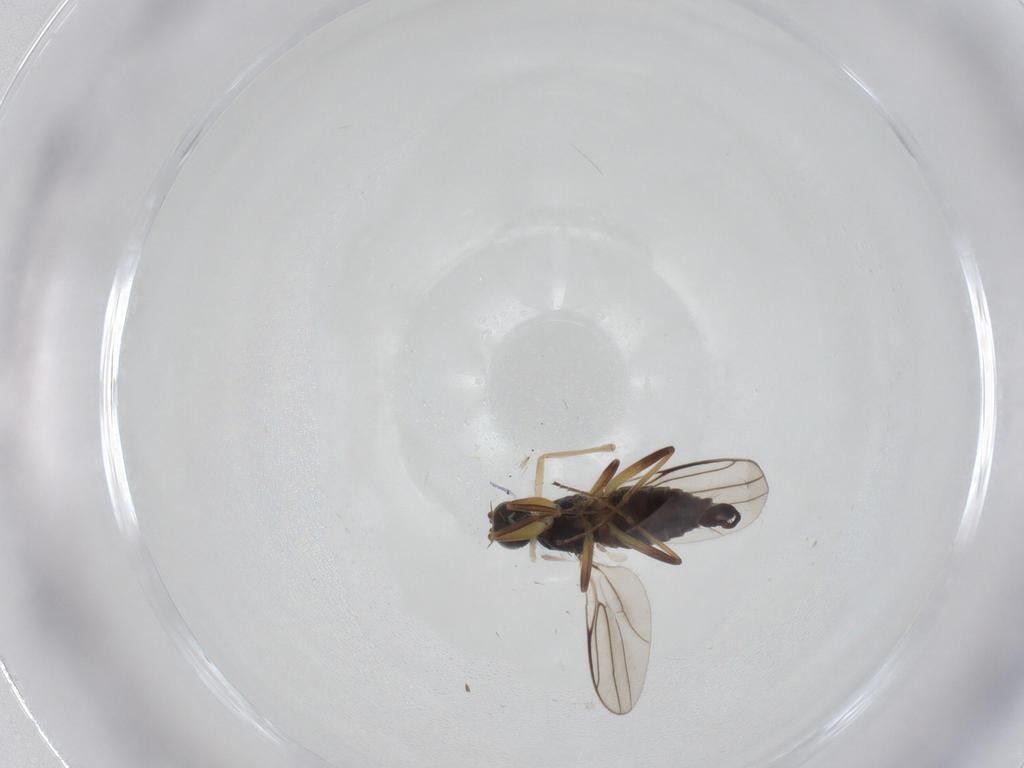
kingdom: Animalia
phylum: Arthropoda
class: Insecta
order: Diptera
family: Hybotidae
